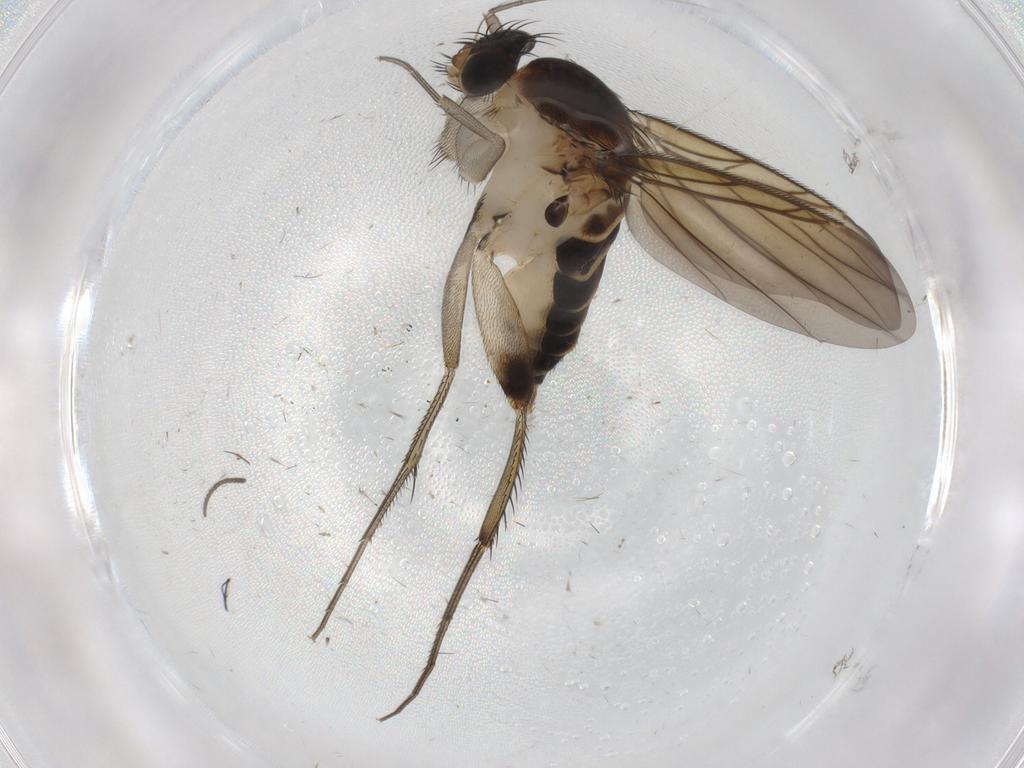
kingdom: Animalia
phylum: Arthropoda
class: Insecta
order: Diptera
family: Phoridae
